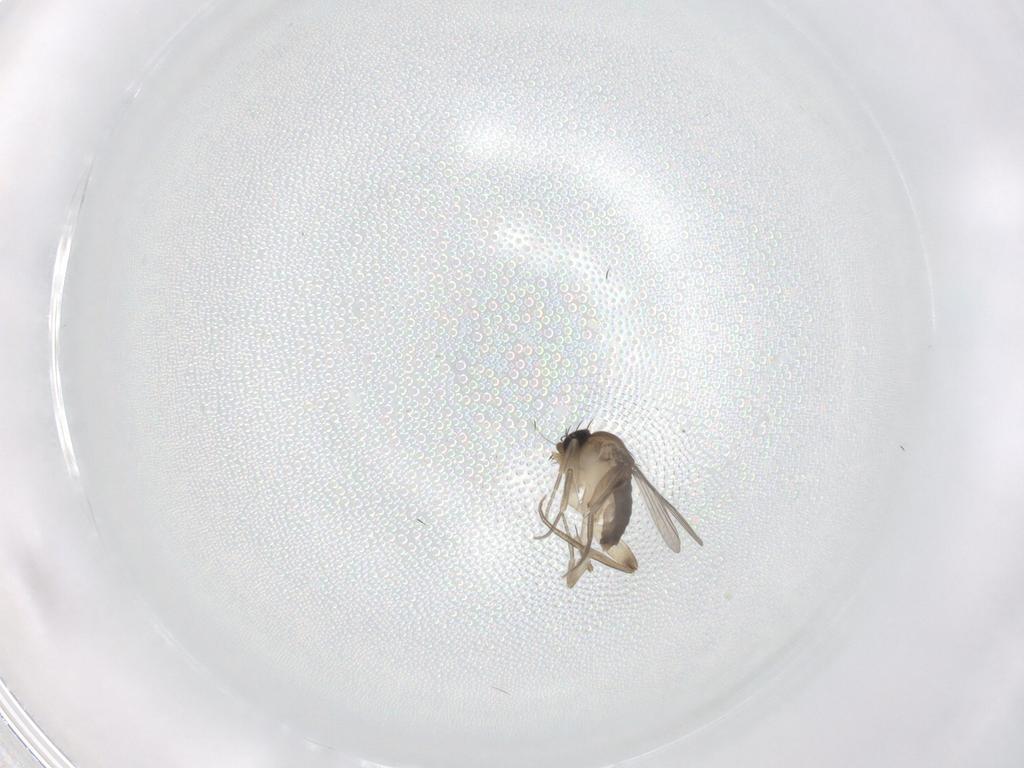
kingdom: Animalia
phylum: Arthropoda
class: Insecta
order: Diptera
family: Phoridae
